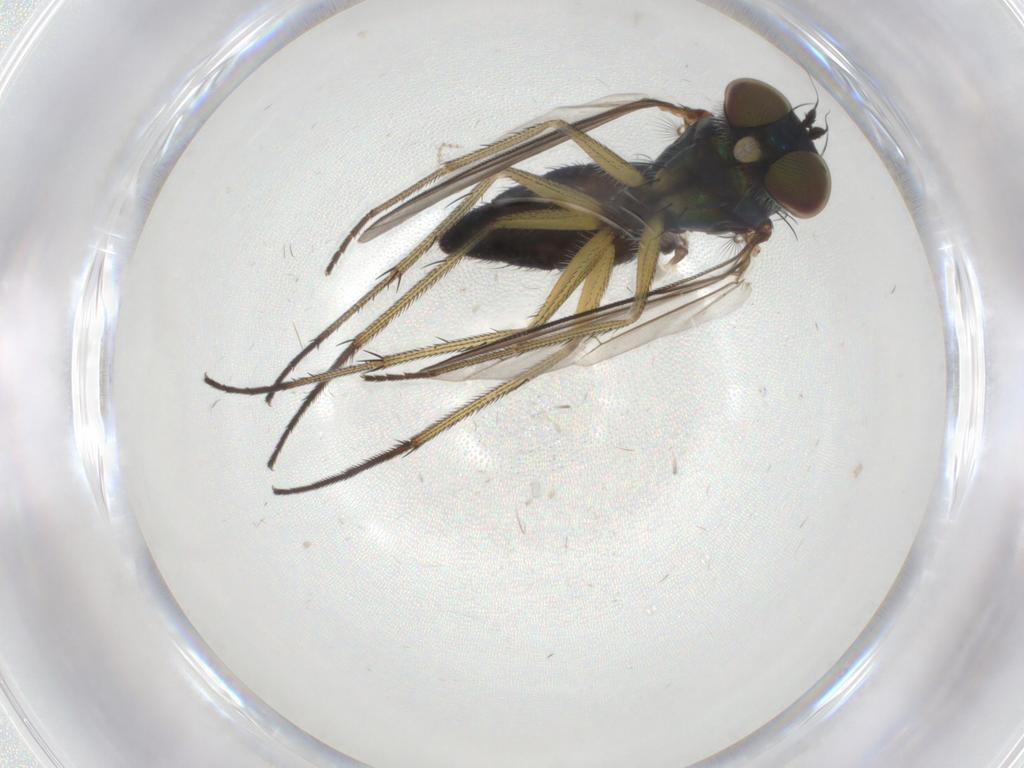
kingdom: Animalia
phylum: Arthropoda
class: Insecta
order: Diptera
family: Dolichopodidae
